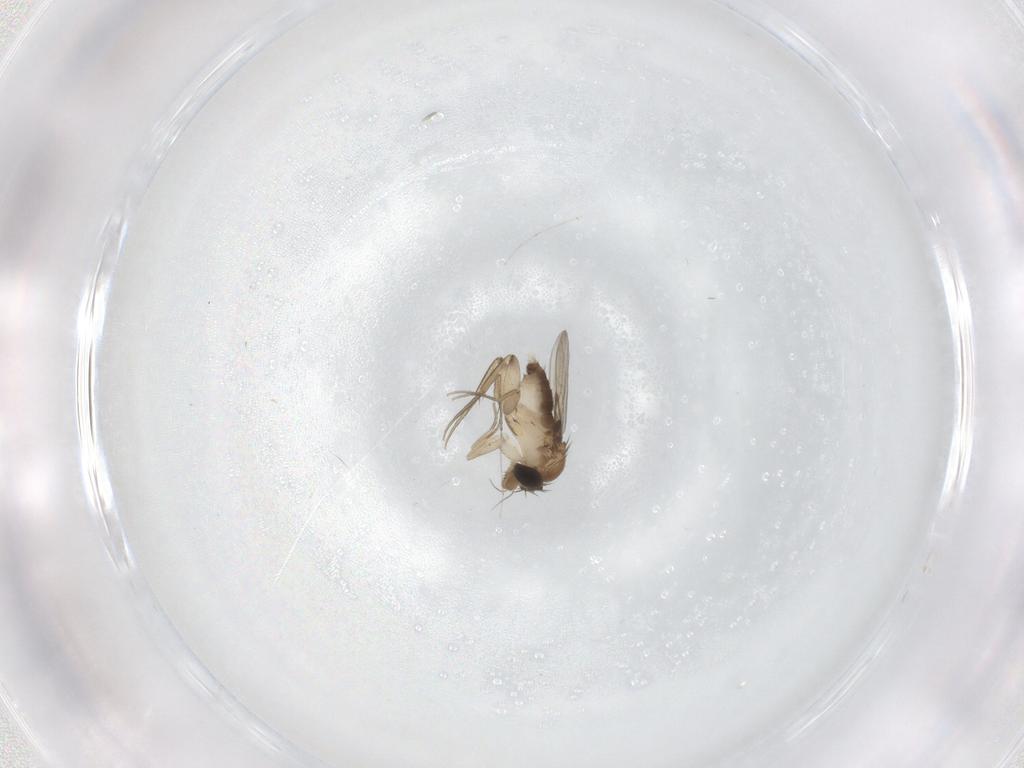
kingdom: Animalia
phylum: Arthropoda
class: Insecta
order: Diptera
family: Phoridae
